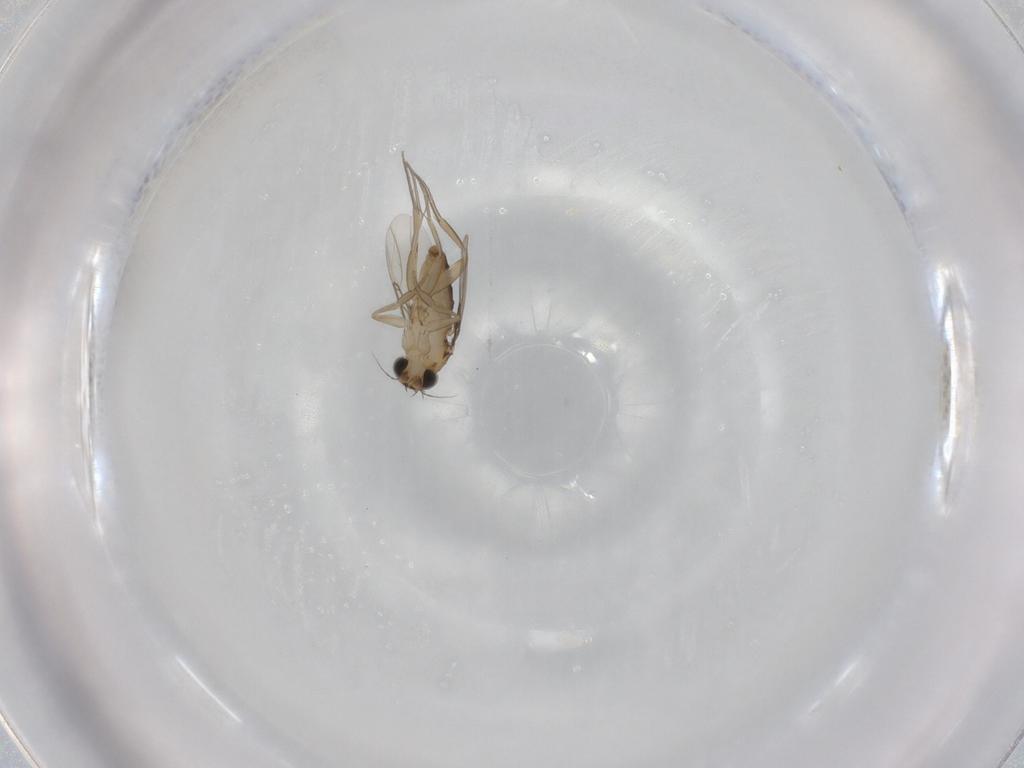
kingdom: Animalia
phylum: Arthropoda
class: Insecta
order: Diptera
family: Phoridae
